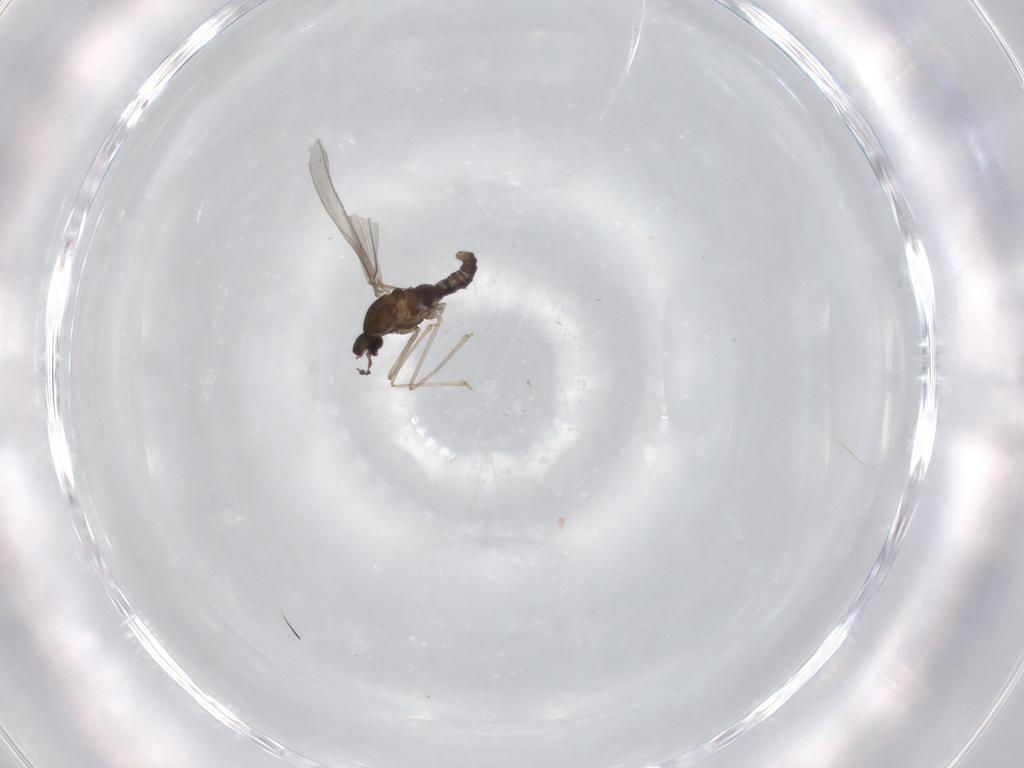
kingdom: Animalia
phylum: Arthropoda
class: Insecta
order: Diptera
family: Cecidomyiidae
